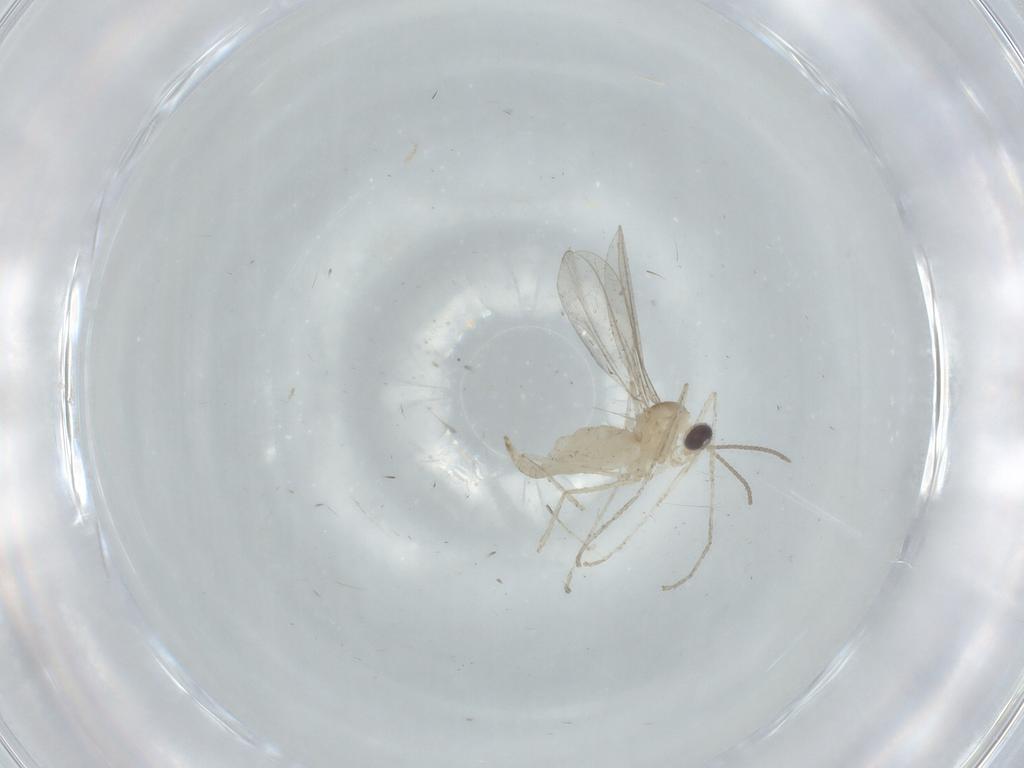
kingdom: Animalia
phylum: Arthropoda
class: Insecta
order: Diptera
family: Cecidomyiidae
